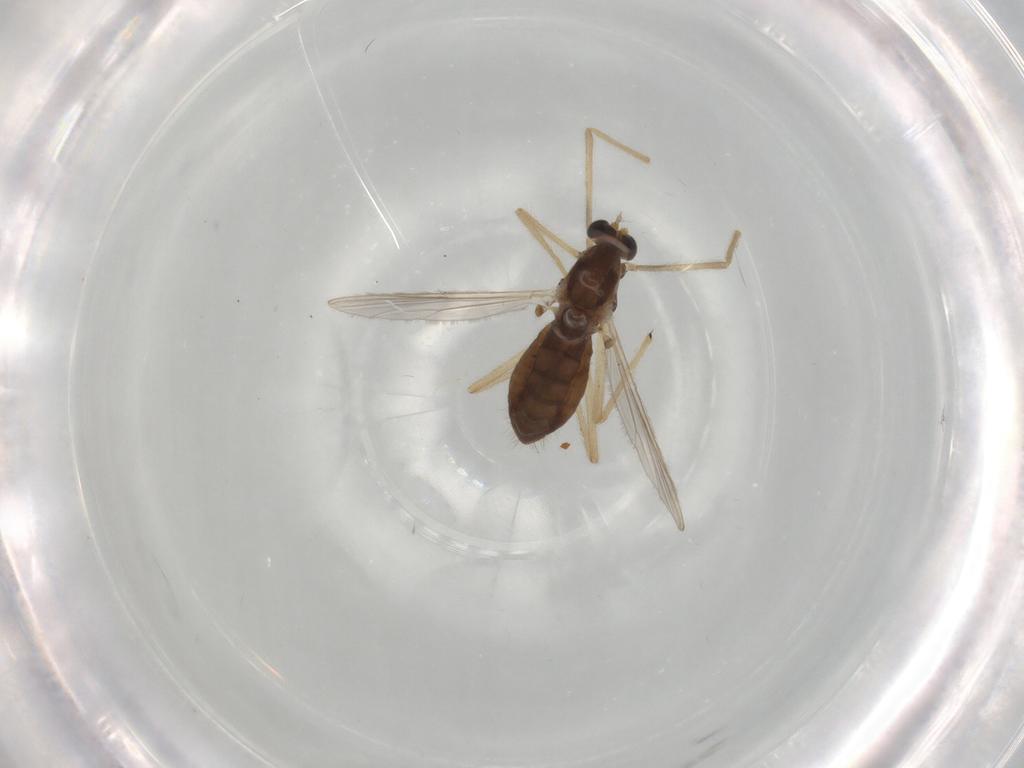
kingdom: Animalia
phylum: Arthropoda
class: Insecta
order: Diptera
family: Chironomidae
